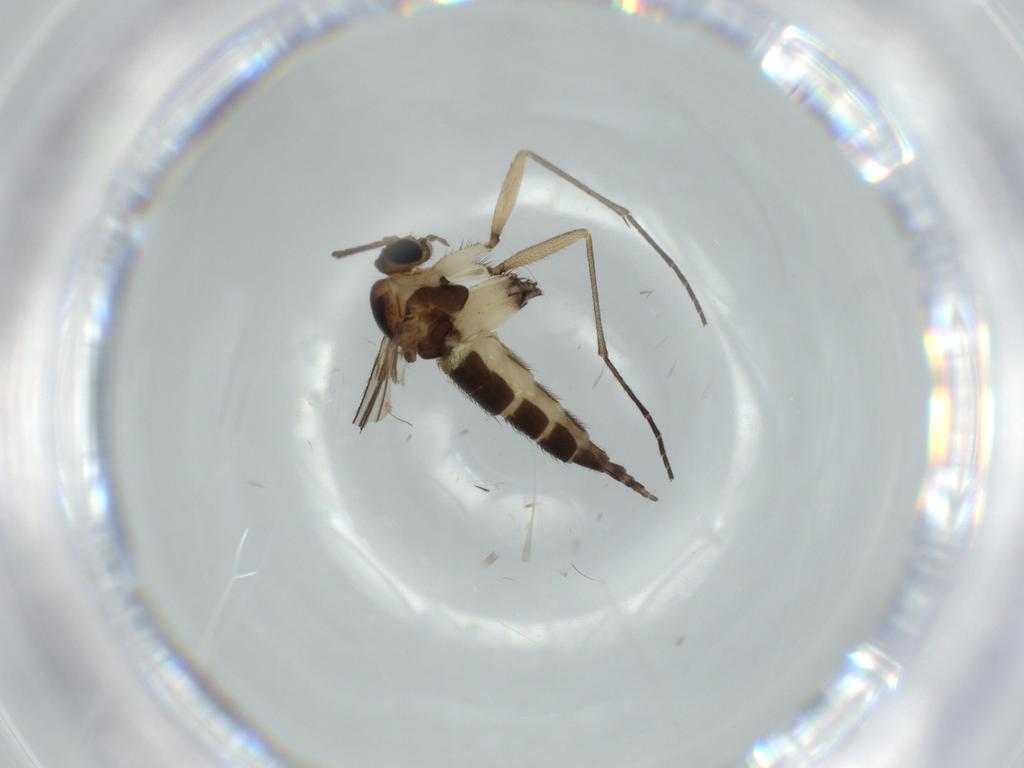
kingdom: Animalia
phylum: Arthropoda
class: Insecta
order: Diptera
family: Sciaridae
